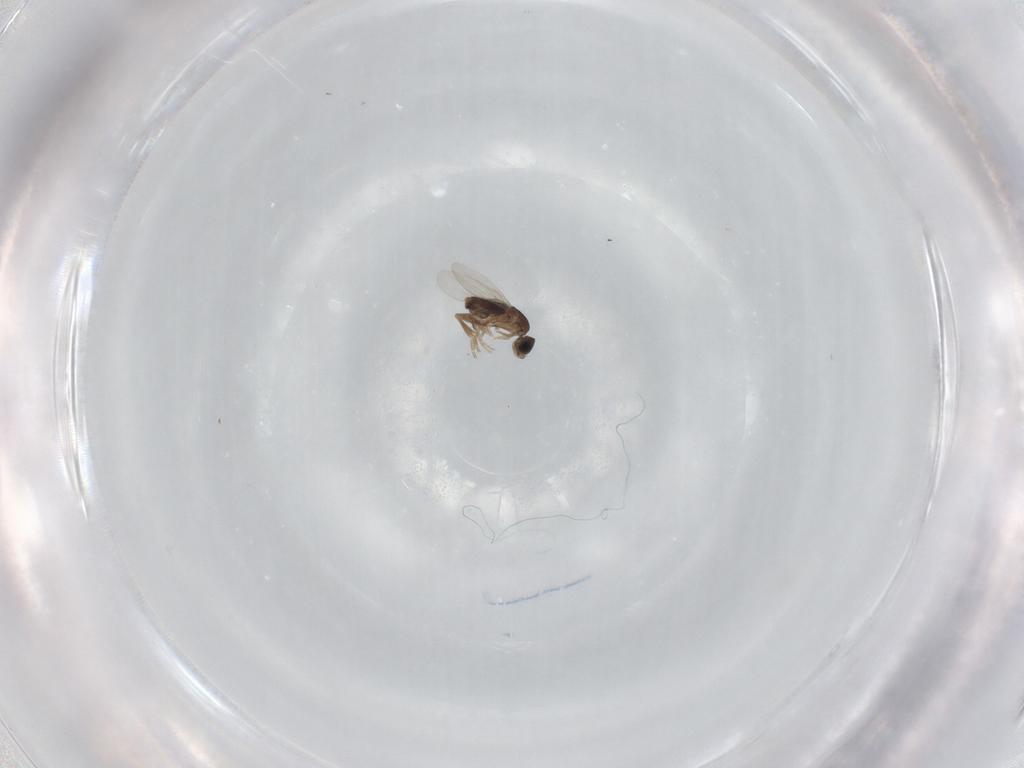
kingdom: Animalia
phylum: Arthropoda
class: Insecta
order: Diptera
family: Phoridae
